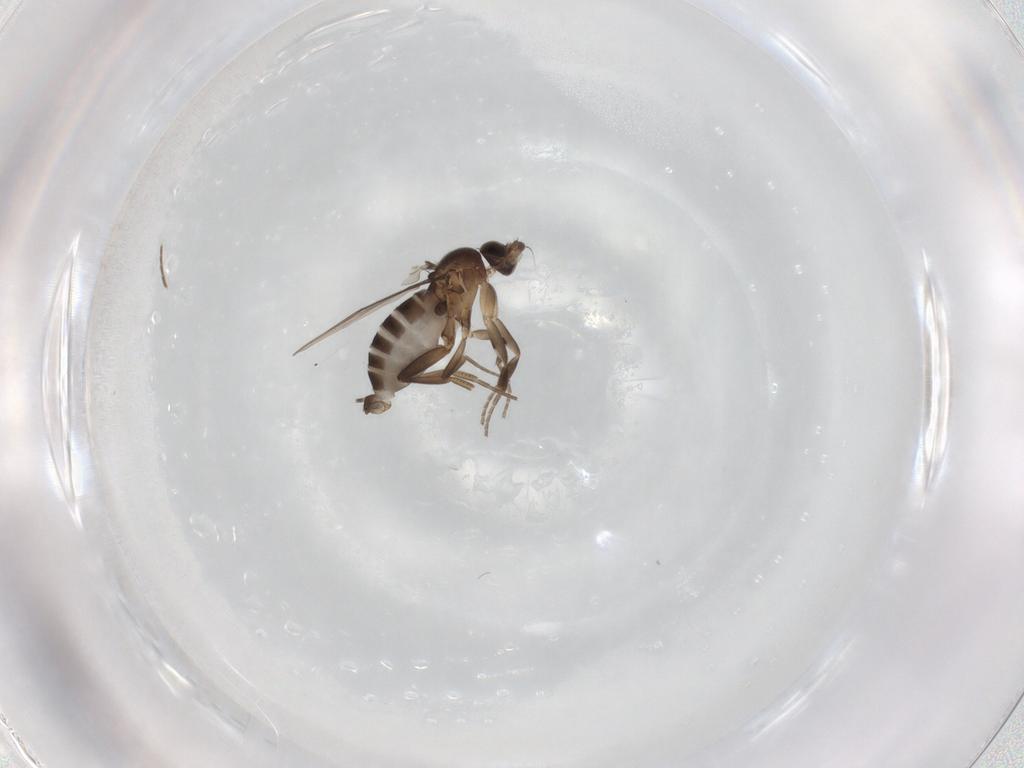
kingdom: Animalia
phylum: Arthropoda
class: Insecta
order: Diptera
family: Phoridae
